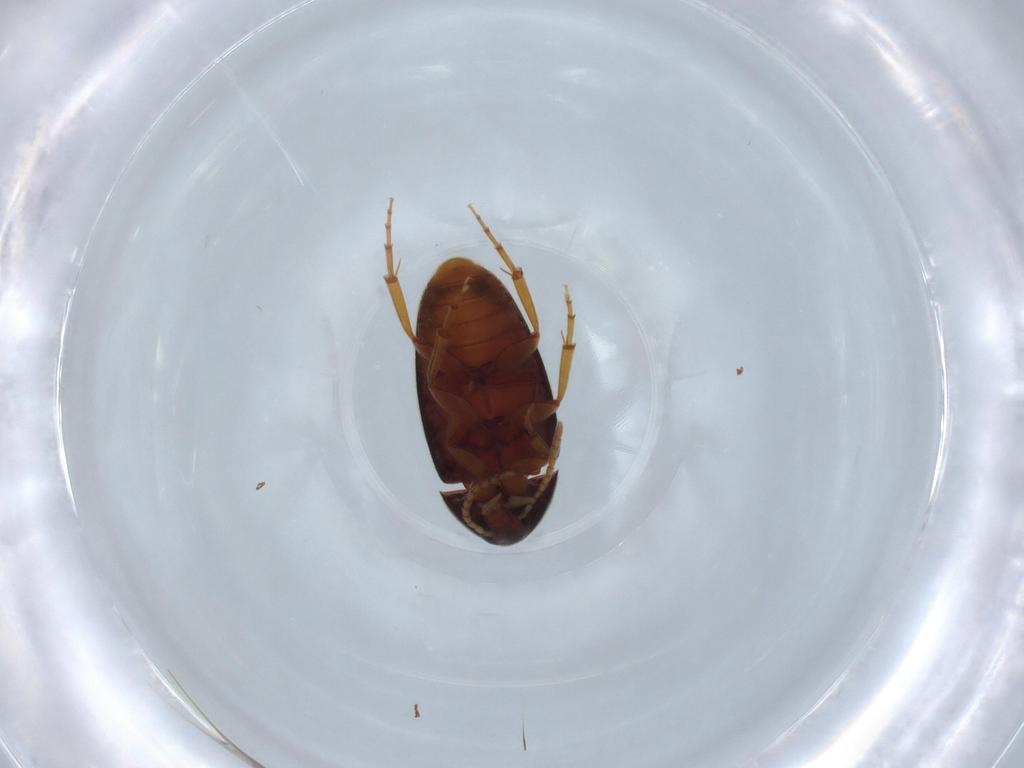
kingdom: Animalia
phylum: Arthropoda
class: Insecta
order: Coleoptera
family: Scraptiidae
